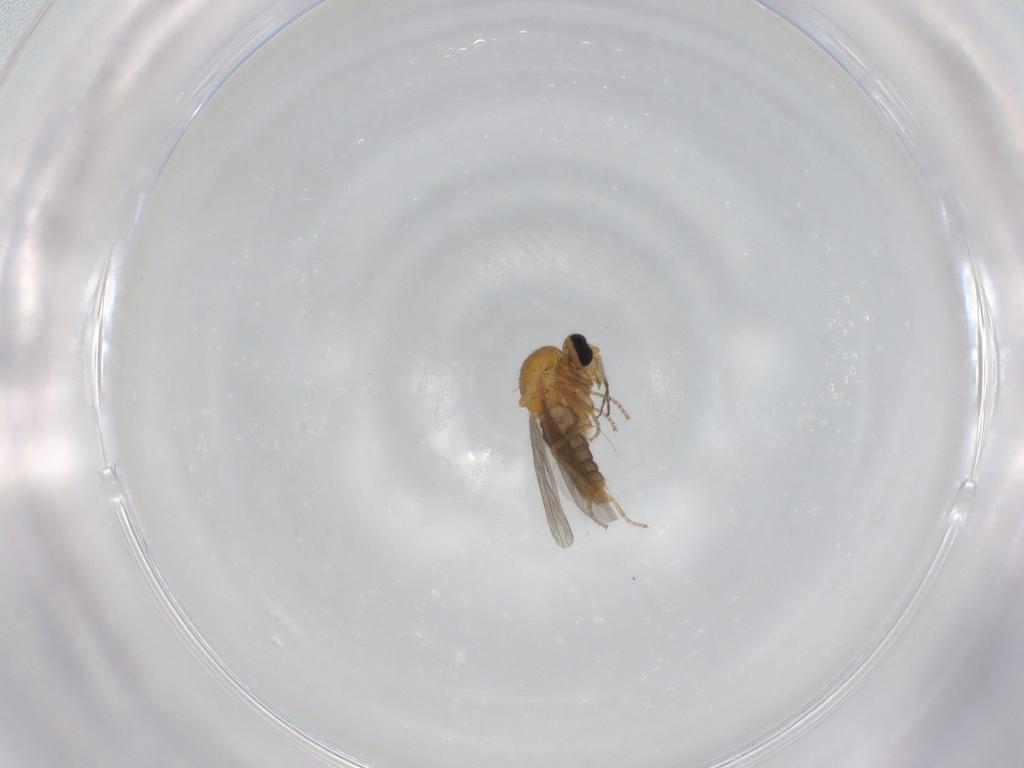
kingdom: Animalia
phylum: Arthropoda
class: Insecta
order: Diptera
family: Ceratopogonidae
